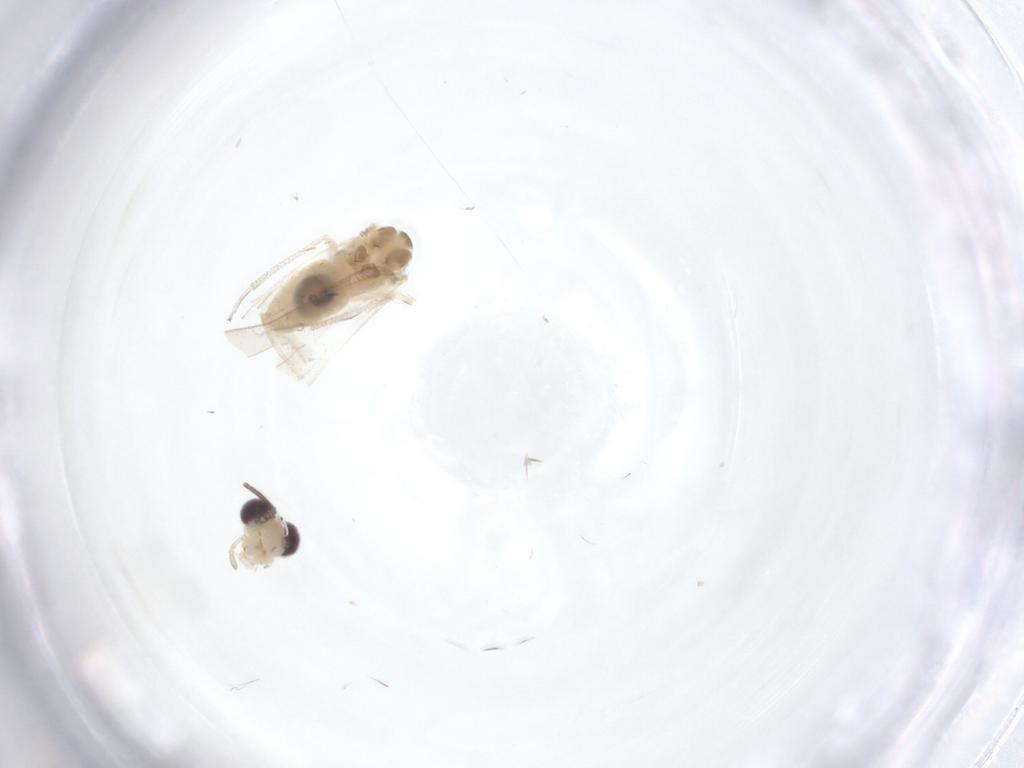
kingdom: Animalia
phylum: Arthropoda
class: Insecta
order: Psocodea
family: Caeciliusidae
